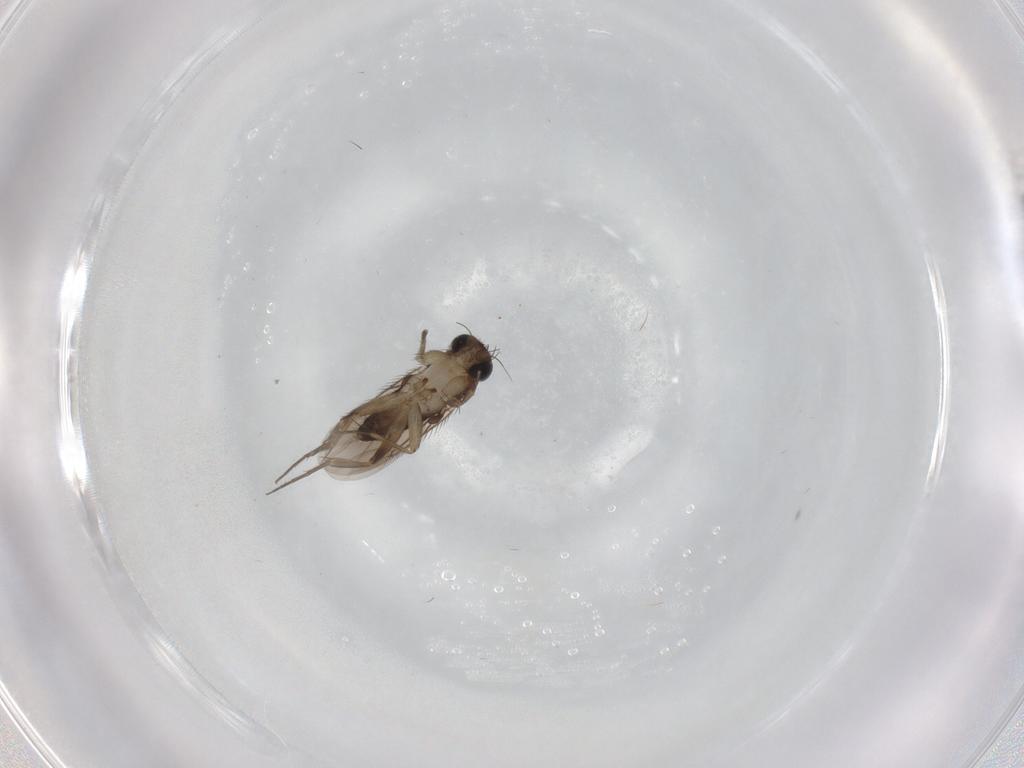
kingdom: Animalia
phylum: Arthropoda
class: Insecta
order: Diptera
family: Phoridae
